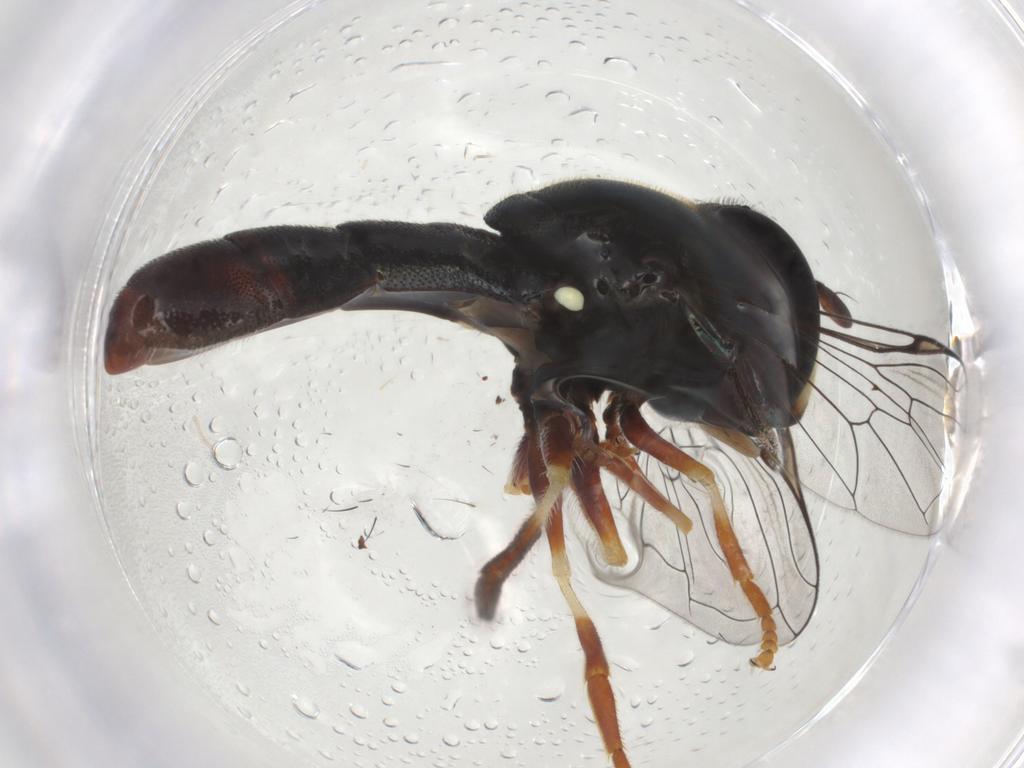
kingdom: Animalia
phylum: Arthropoda
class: Insecta
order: Diptera
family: Syrphidae
